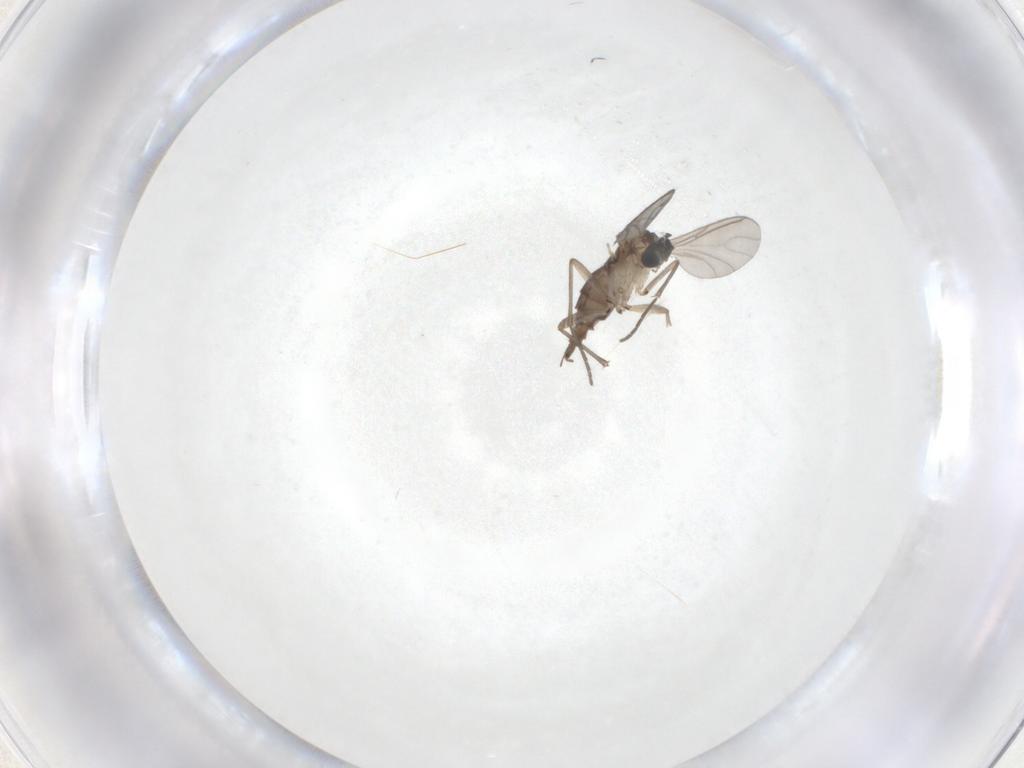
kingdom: Animalia
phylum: Arthropoda
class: Insecta
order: Diptera
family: Sciaridae
